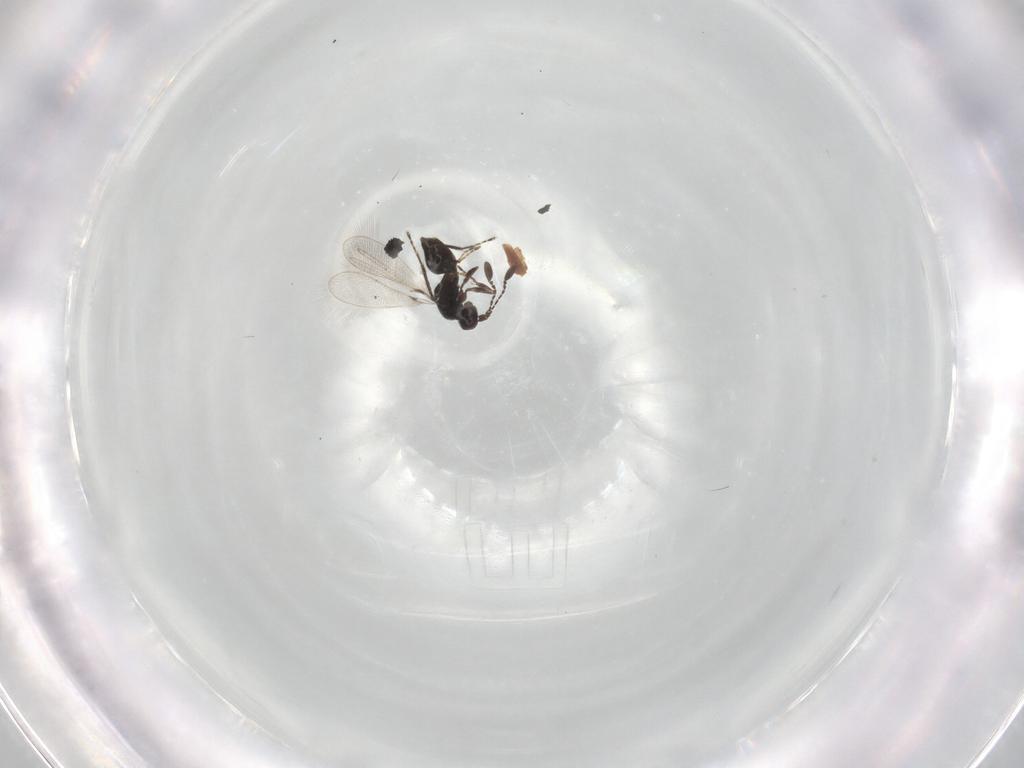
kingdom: Animalia
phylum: Arthropoda
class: Insecta
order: Hymenoptera
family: Mymaridae
